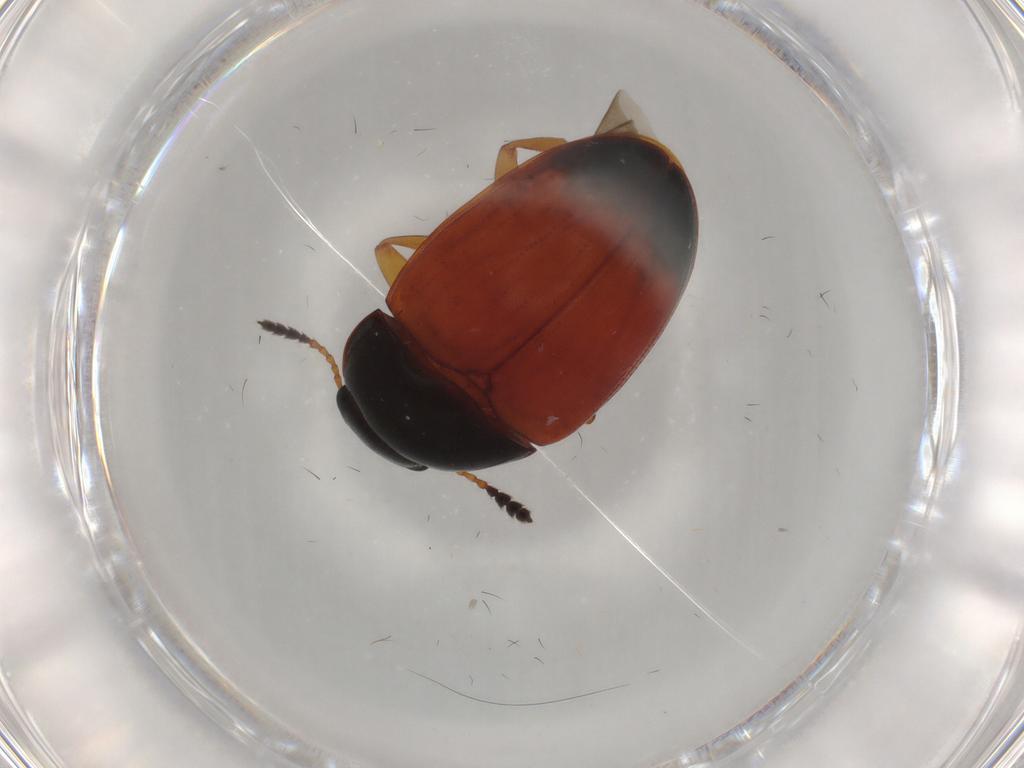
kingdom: Animalia
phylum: Arthropoda
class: Insecta
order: Coleoptera
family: Erotylidae
